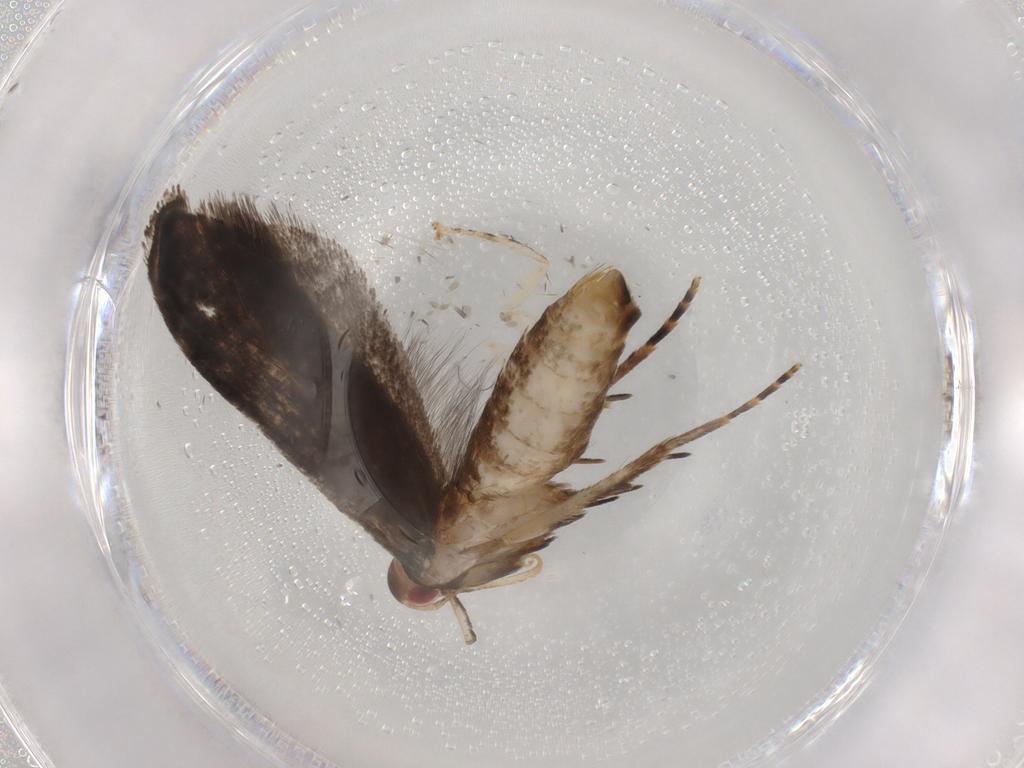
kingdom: Animalia
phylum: Arthropoda
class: Insecta
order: Lepidoptera
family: Gelechiidae
